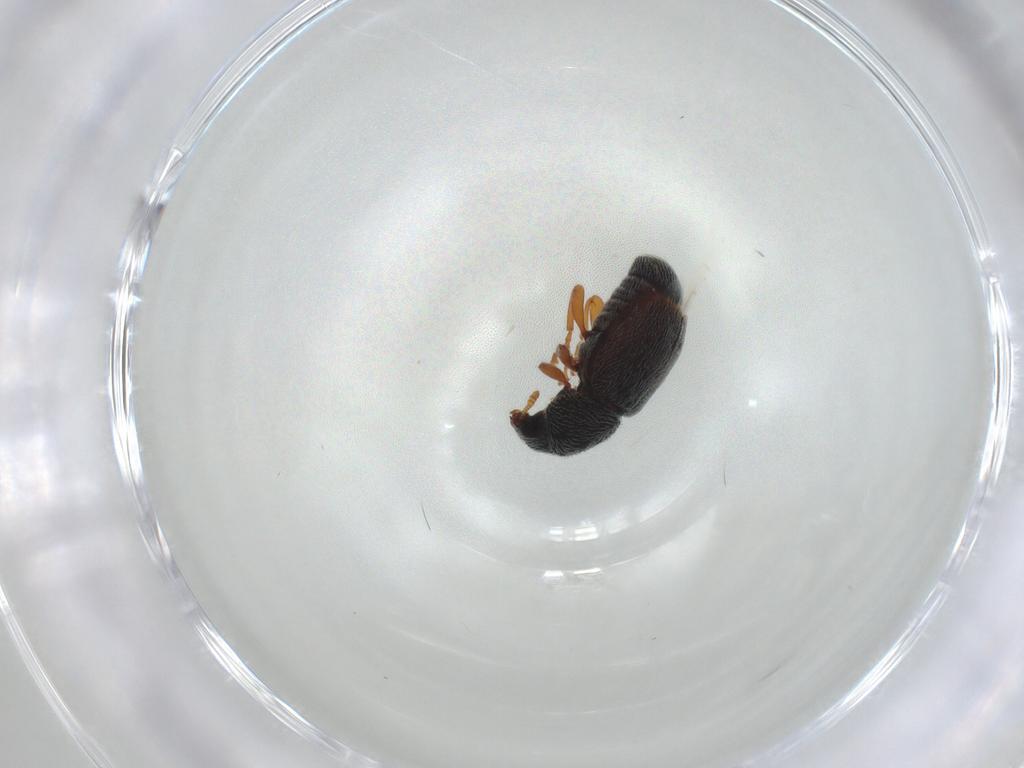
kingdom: Animalia
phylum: Arthropoda
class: Insecta
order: Coleoptera
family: Anthribidae
